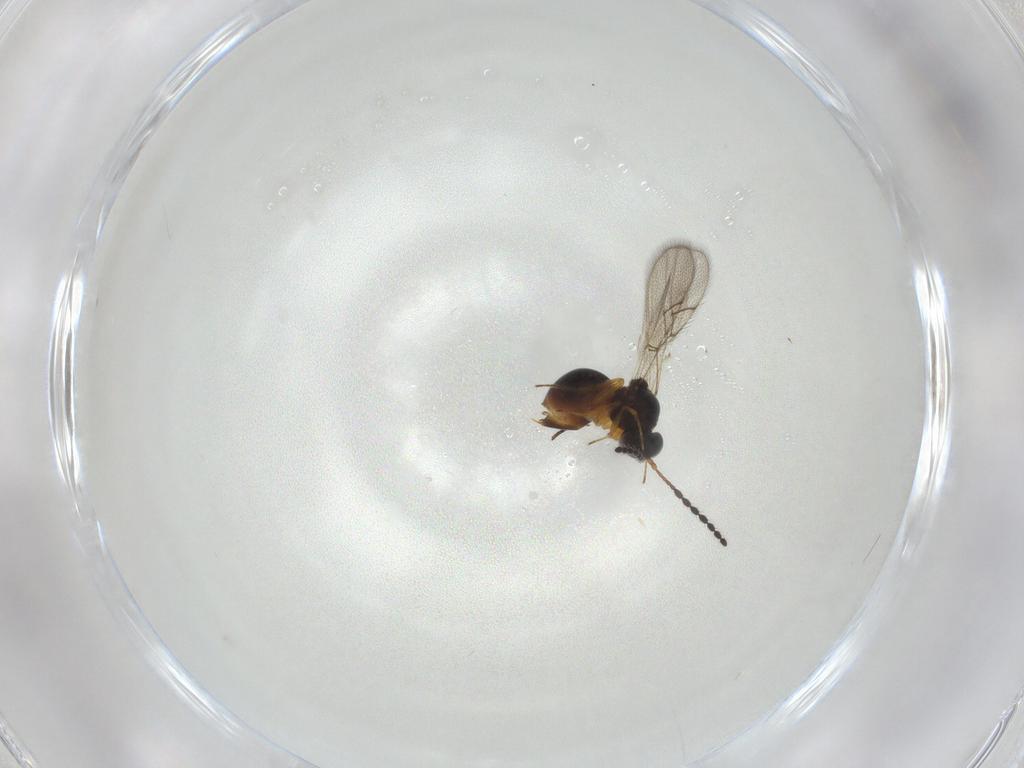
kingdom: Animalia
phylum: Arthropoda
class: Insecta
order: Hymenoptera
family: Figitidae
